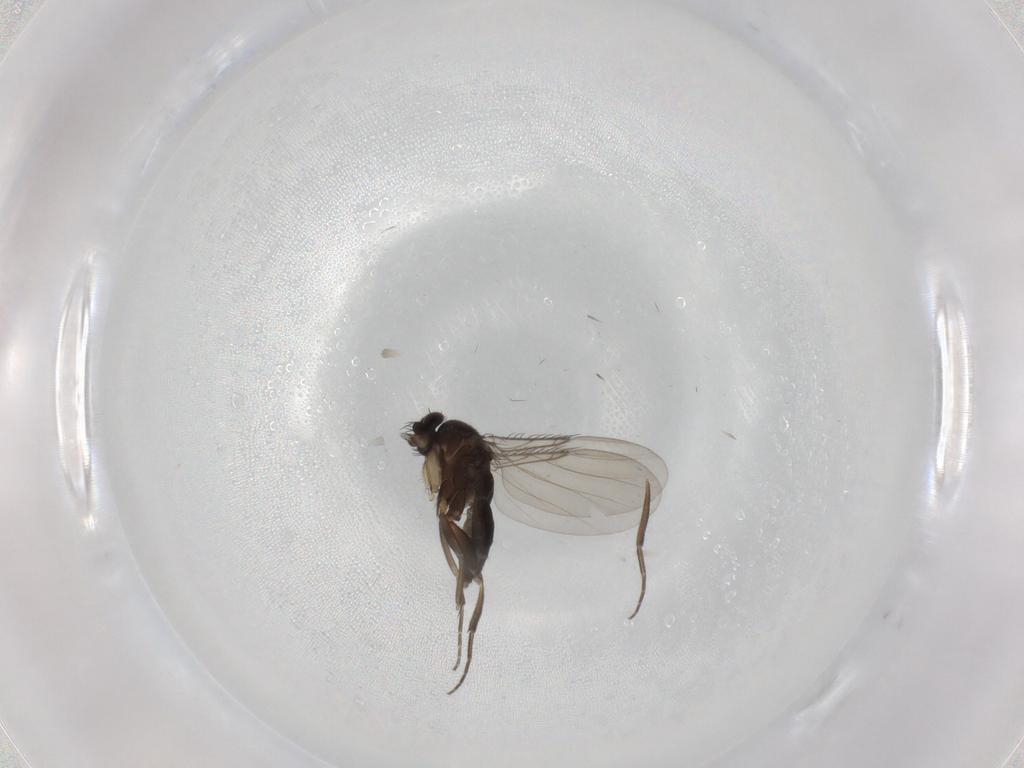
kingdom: Animalia
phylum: Arthropoda
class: Insecta
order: Diptera
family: Phoridae
